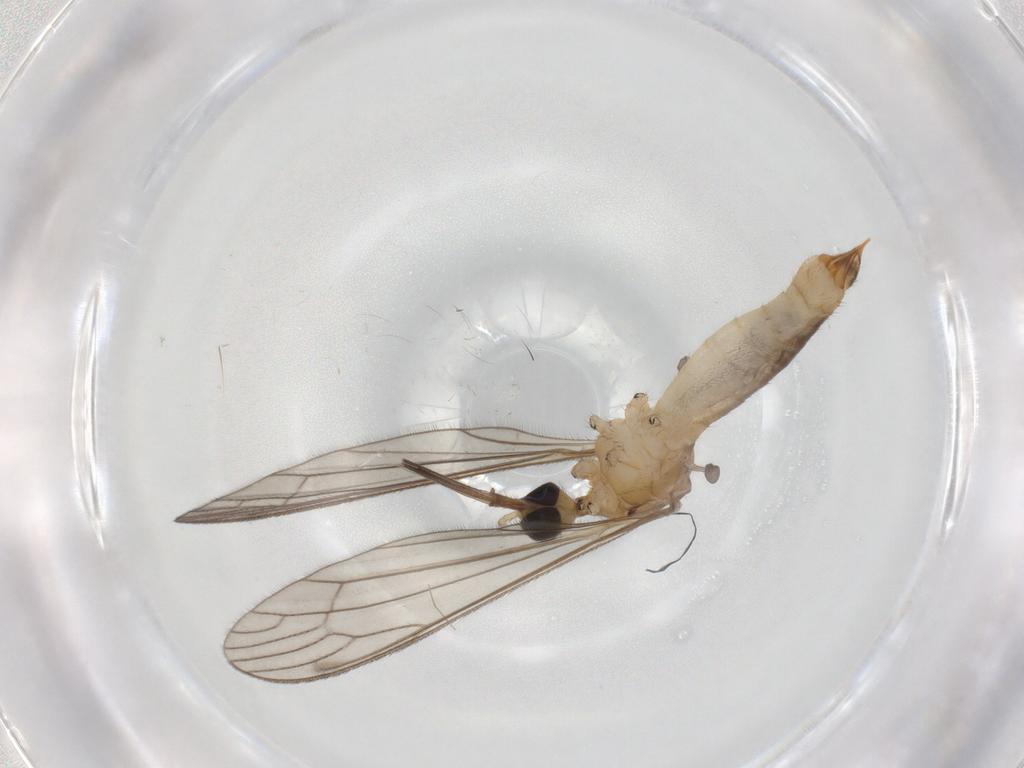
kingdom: Animalia
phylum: Arthropoda
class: Insecta
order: Diptera
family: Limoniidae
